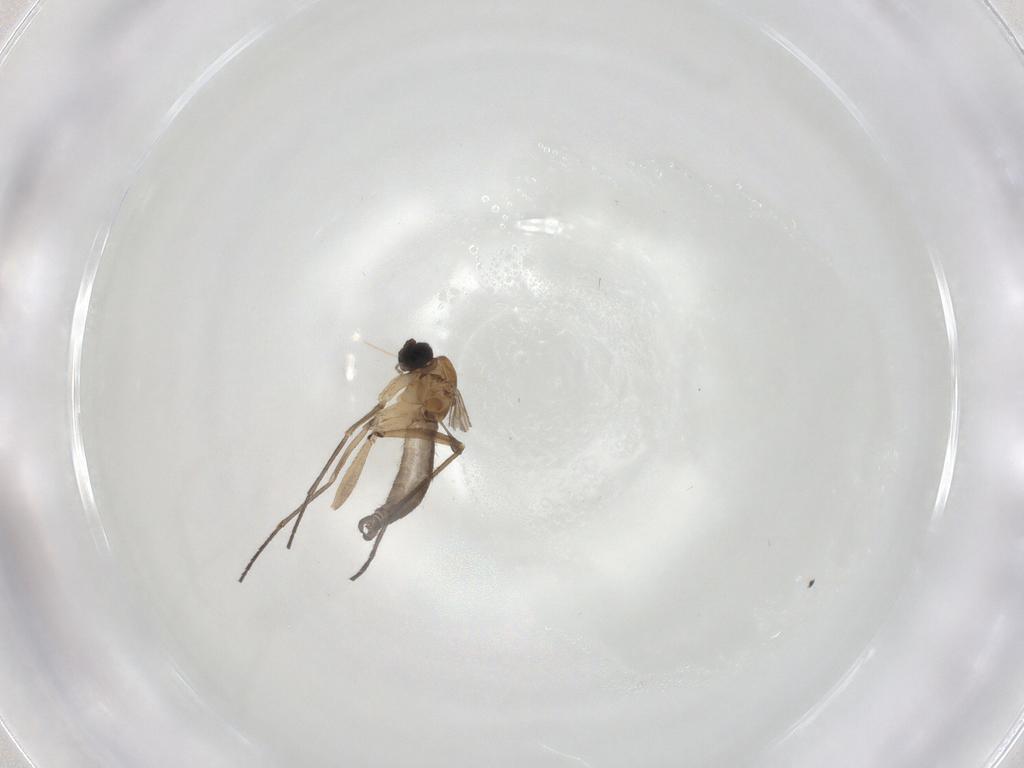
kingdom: Animalia
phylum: Arthropoda
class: Insecta
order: Diptera
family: Sciaridae
